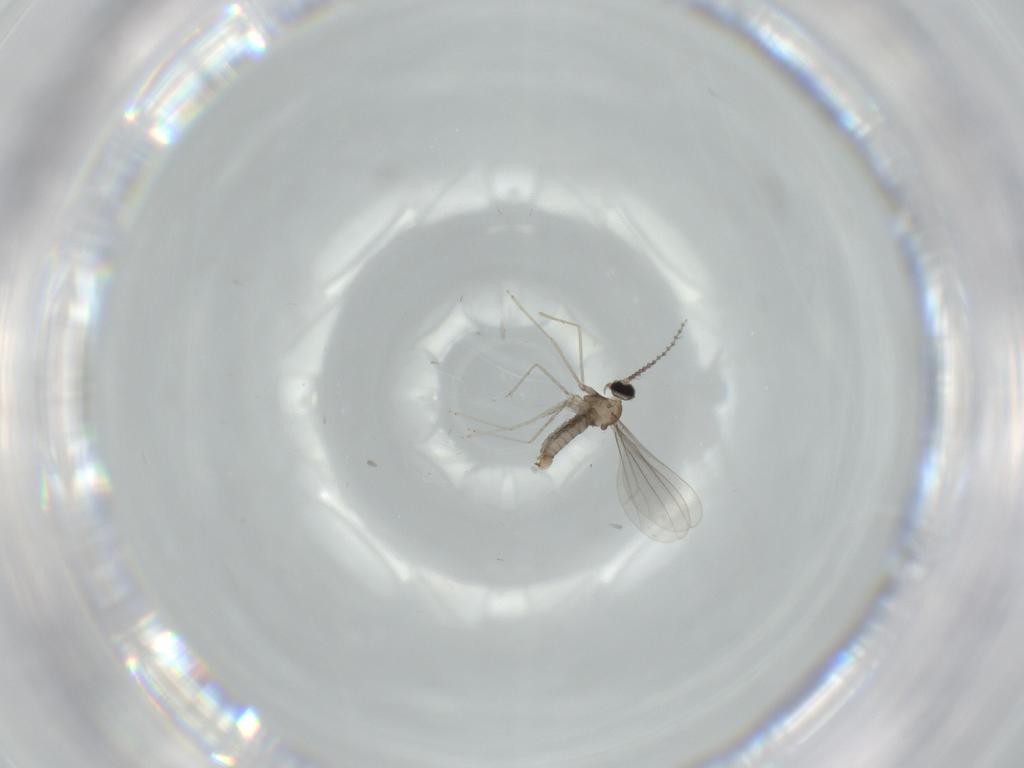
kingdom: Animalia
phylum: Arthropoda
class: Insecta
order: Diptera
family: Cecidomyiidae
